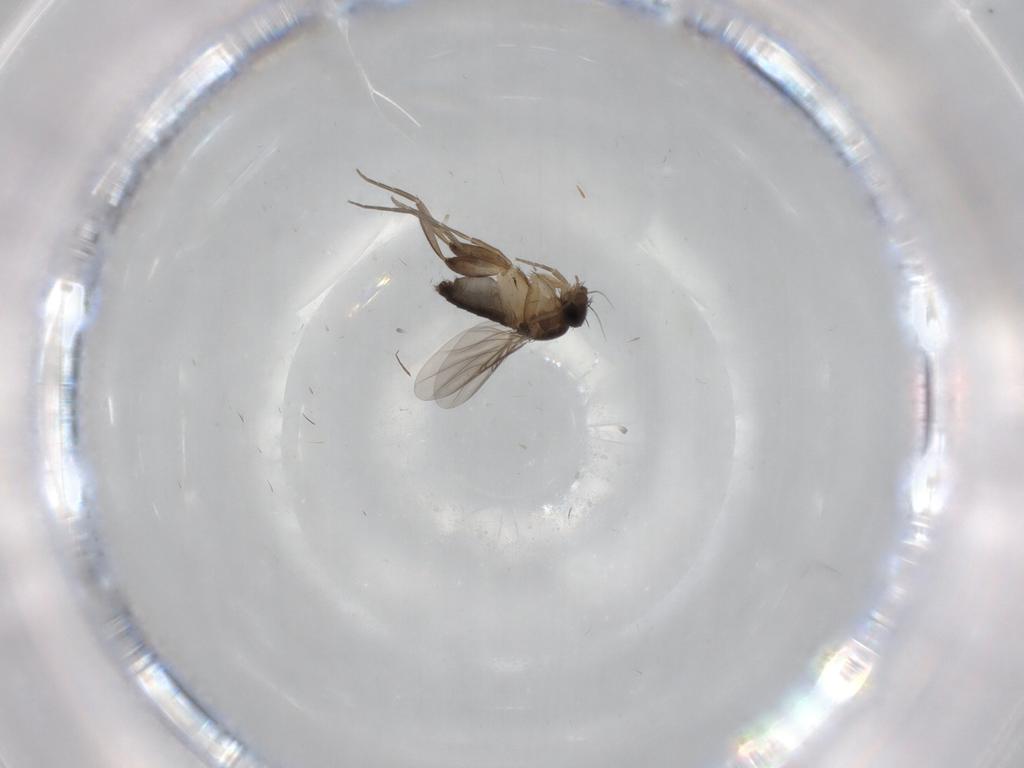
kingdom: Animalia
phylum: Arthropoda
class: Insecta
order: Diptera
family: Phoridae
